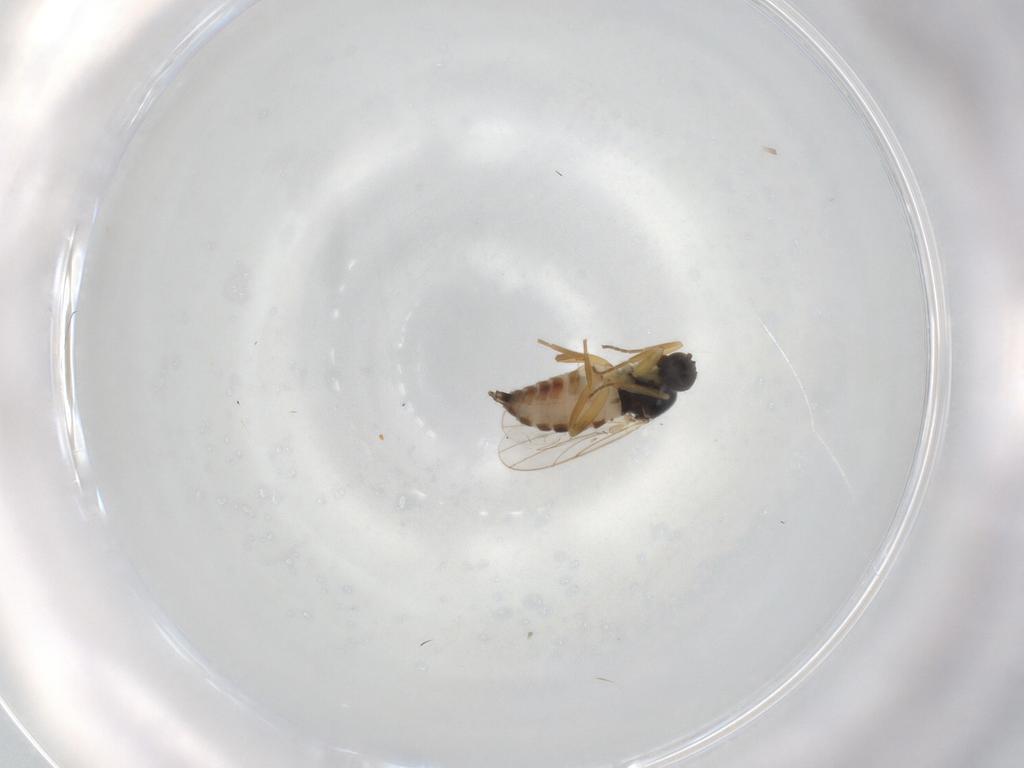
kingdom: Animalia
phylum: Arthropoda
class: Insecta
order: Diptera
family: Hybotidae
